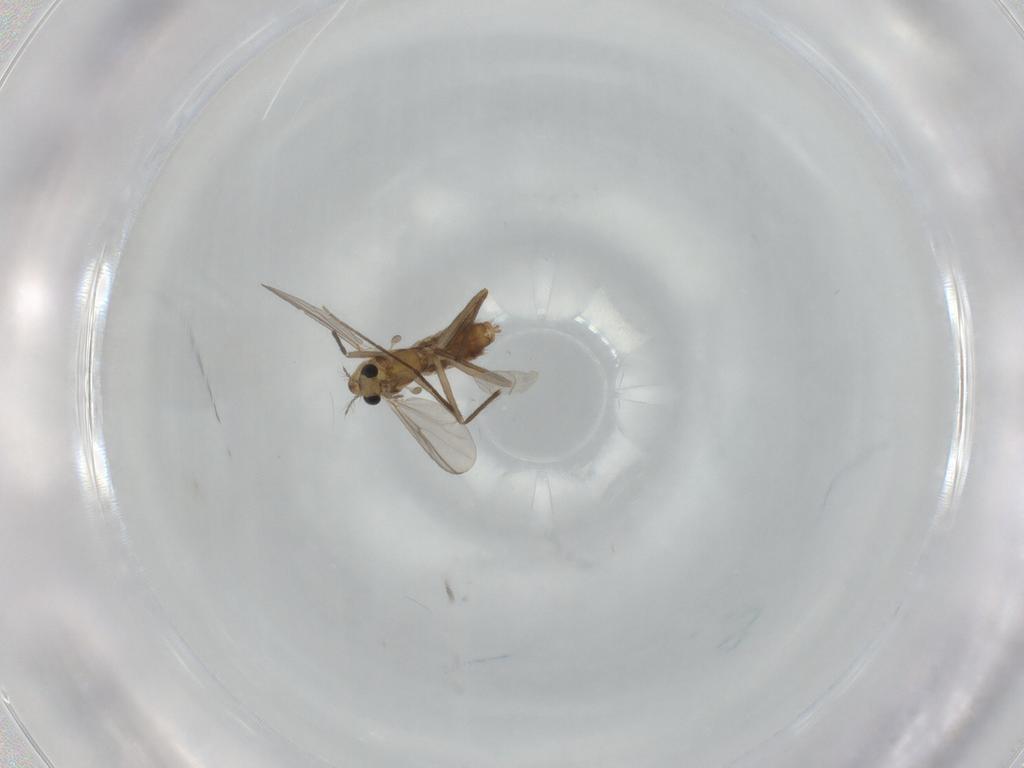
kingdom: Animalia
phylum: Arthropoda
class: Insecta
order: Diptera
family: Chironomidae
